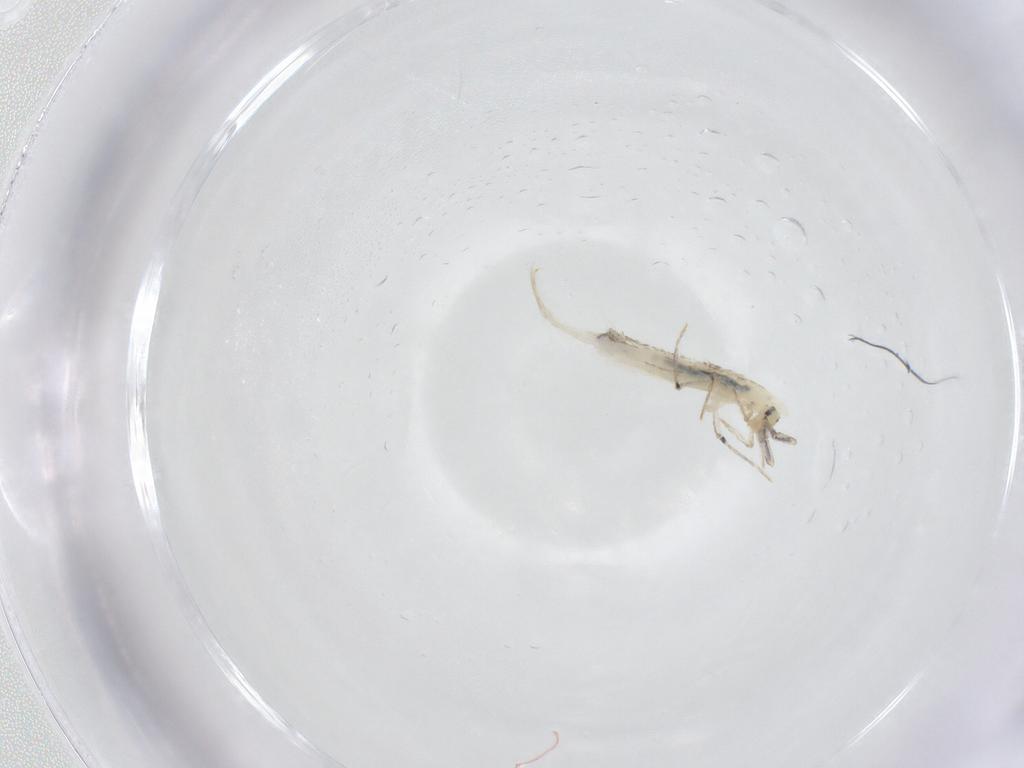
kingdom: Animalia
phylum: Arthropoda
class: Collembola
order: Entomobryomorpha
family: Entomobryidae
